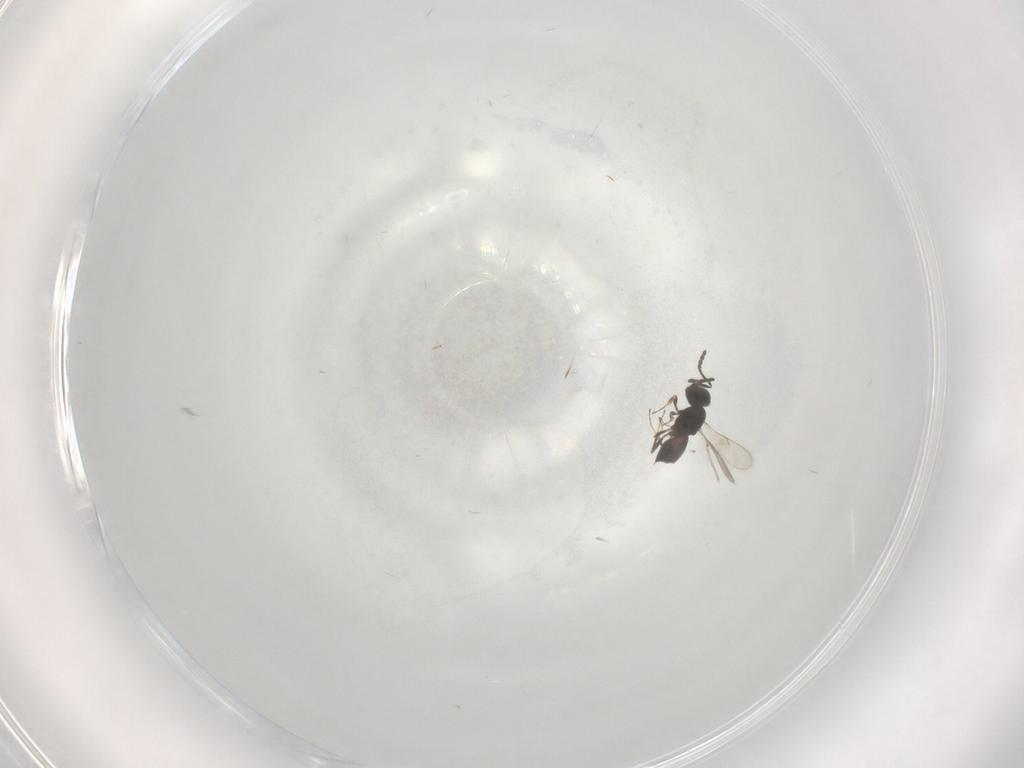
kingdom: Animalia
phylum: Arthropoda
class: Insecta
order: Hymenoptera
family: Scelionidae
